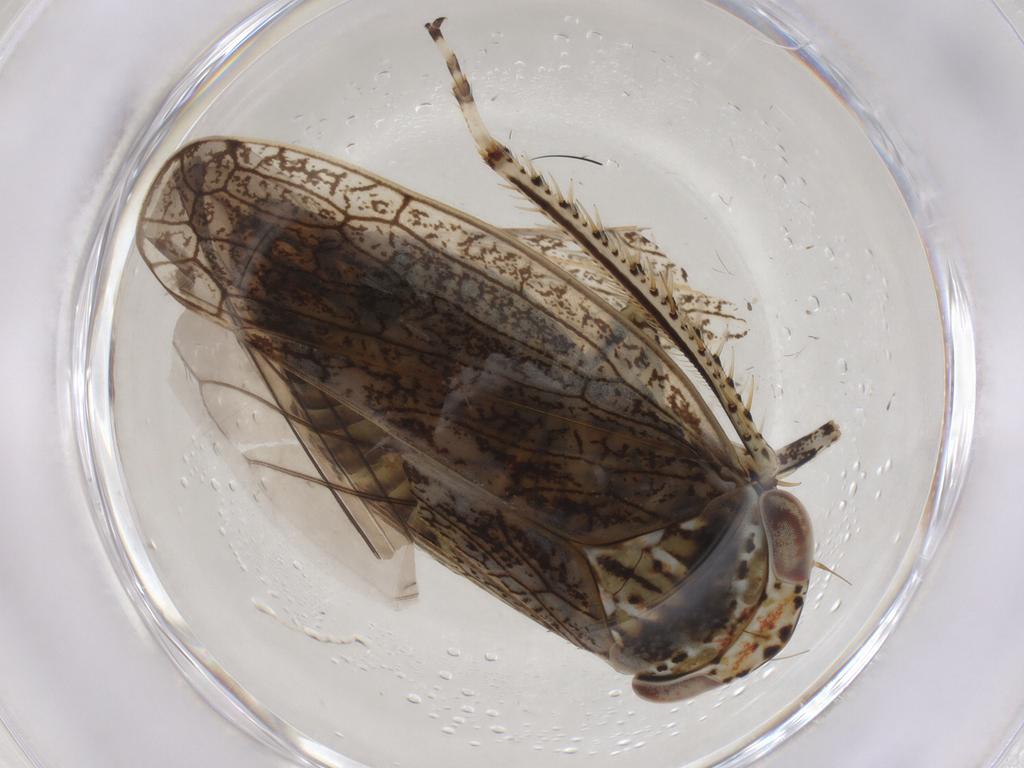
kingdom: Animalia
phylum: Arthropoda
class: Insecta
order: Hemiptera
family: Cicadellidae
